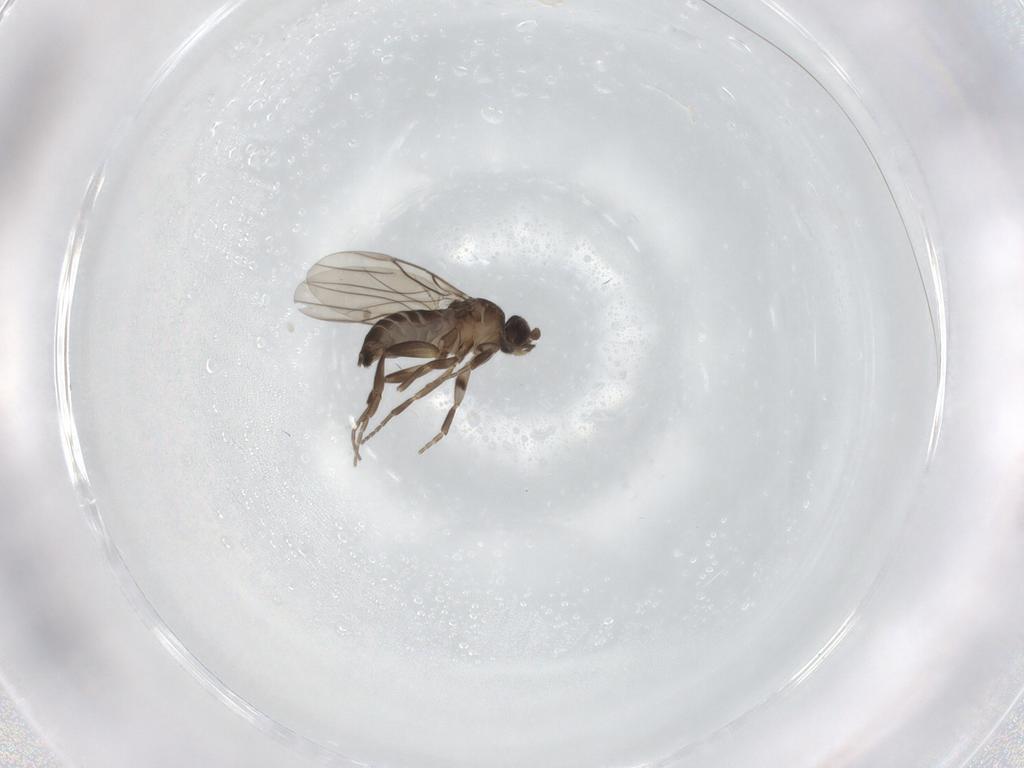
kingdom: Animalia
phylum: Arthropoda
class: Insecta
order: Diptera
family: Phoridae
